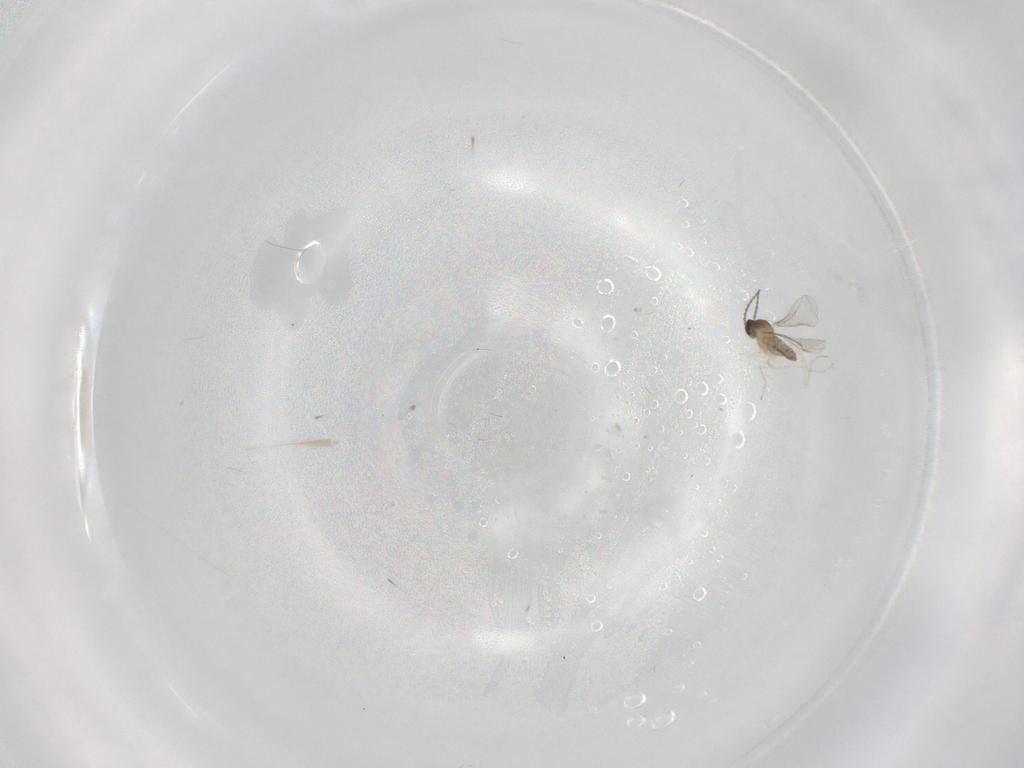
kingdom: Animalia
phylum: Arthropoda
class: Insecta
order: Diptera
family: Cecidomyiidae
